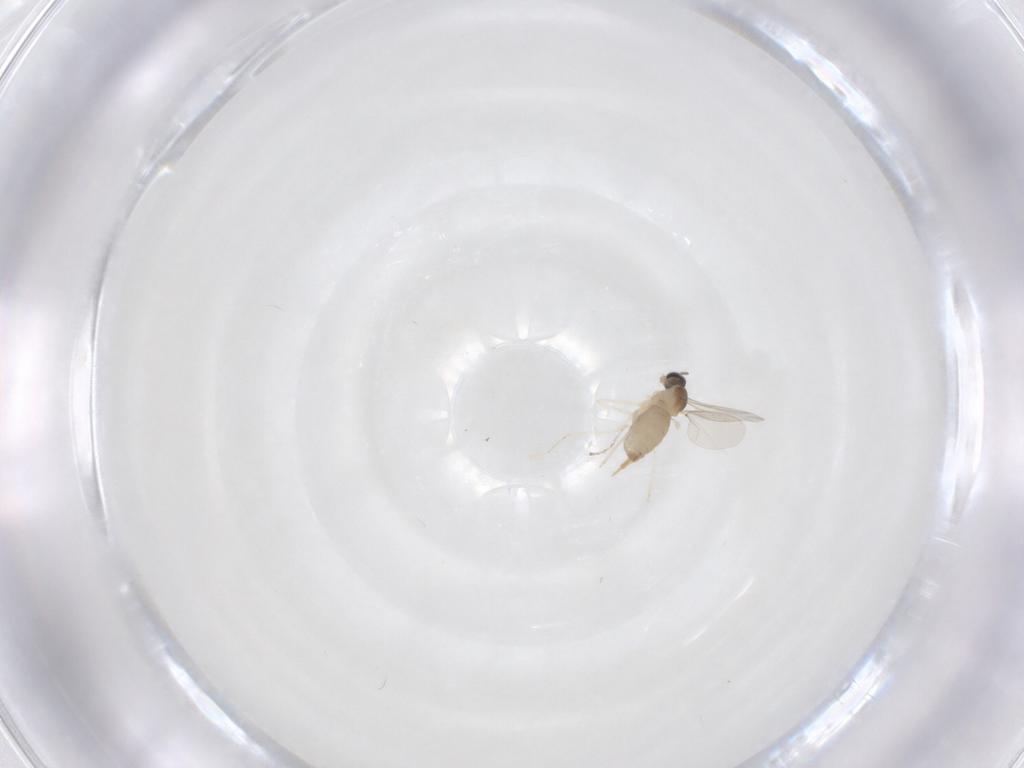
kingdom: Animalia
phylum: Arthropoda
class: Insecta
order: Diptera
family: Cecidomyiidae
